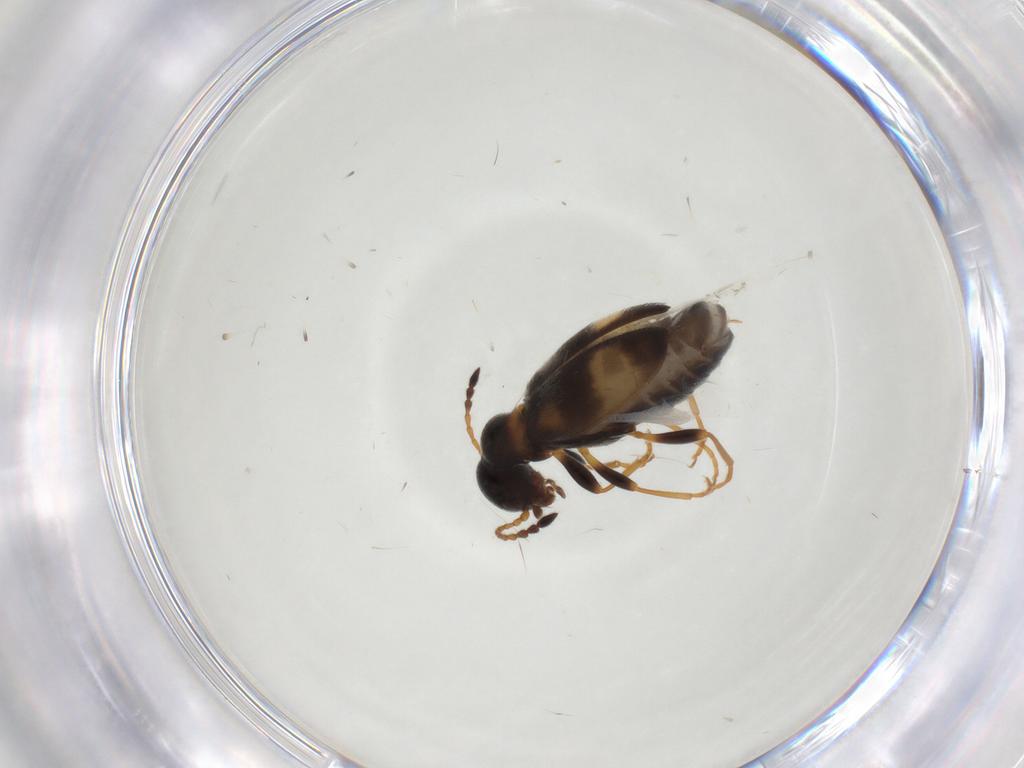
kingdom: Animalia
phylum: Arthropoda
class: Insecta
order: Coleoptera
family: Anthicidae
